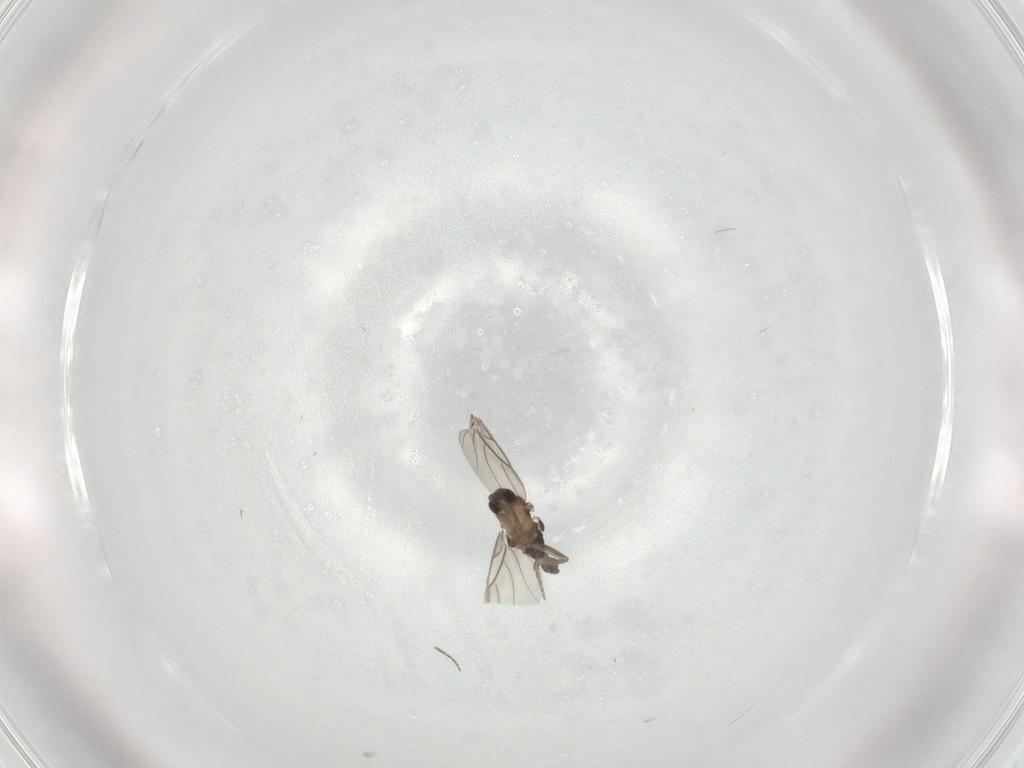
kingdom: Animalia
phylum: Arthropoda
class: Insecta
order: Diptera
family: Phoridae
